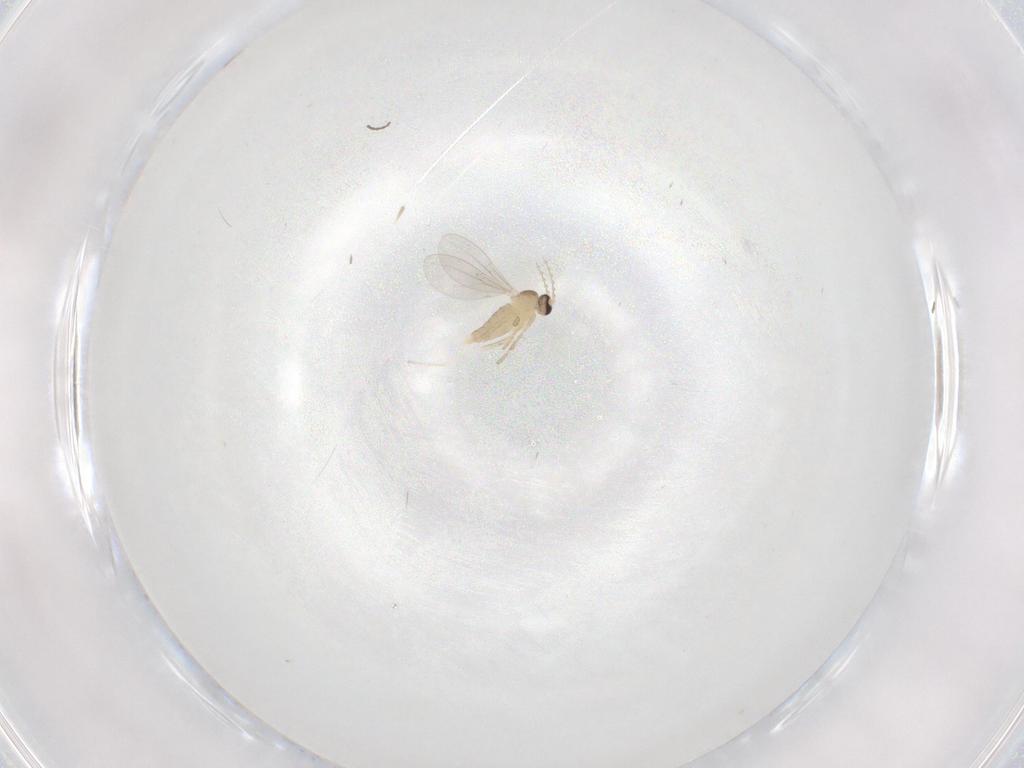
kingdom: Animalia
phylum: Arthropoda
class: Insecta
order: Diptera
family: Cecidomyiidae
